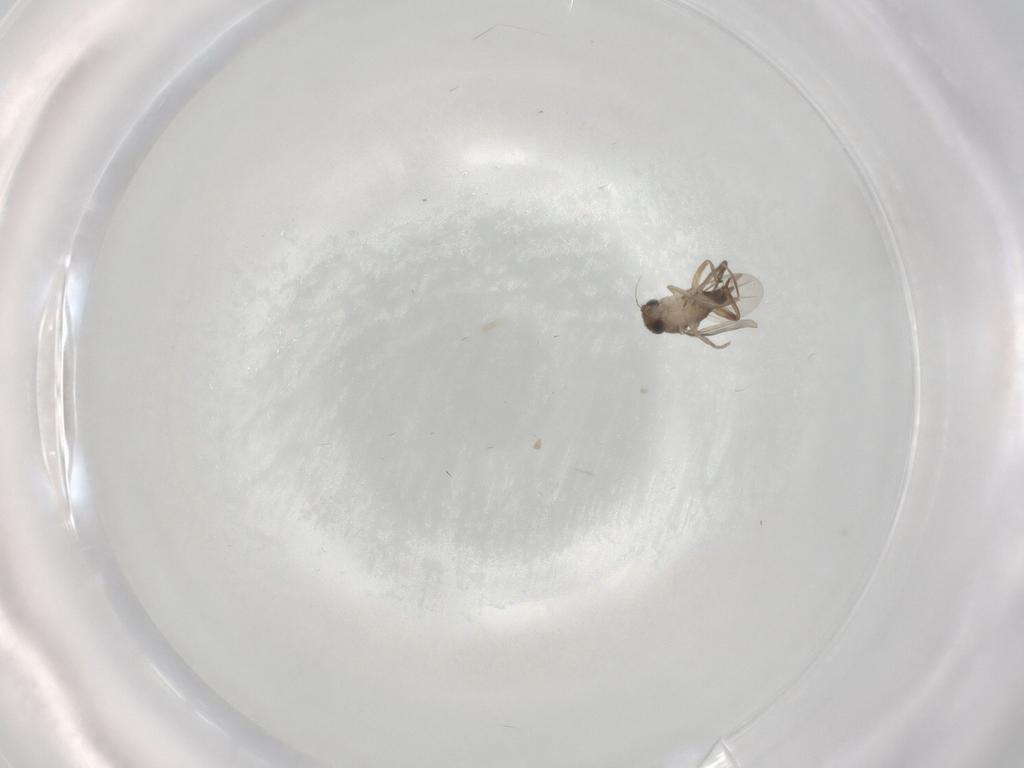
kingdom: Animalia
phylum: Arthropoda
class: Insecta
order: Diptera
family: Phoridae
